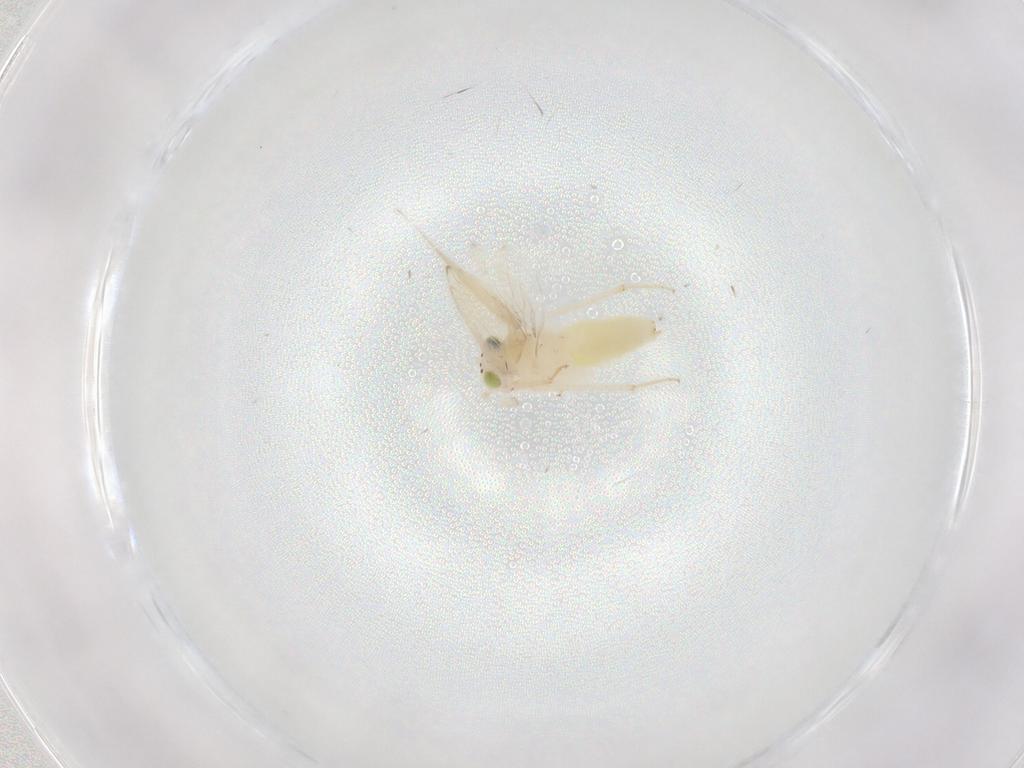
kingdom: Animalia
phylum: Arthropoda
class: Insecta
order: Psocodea
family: Lepidopsocidae
